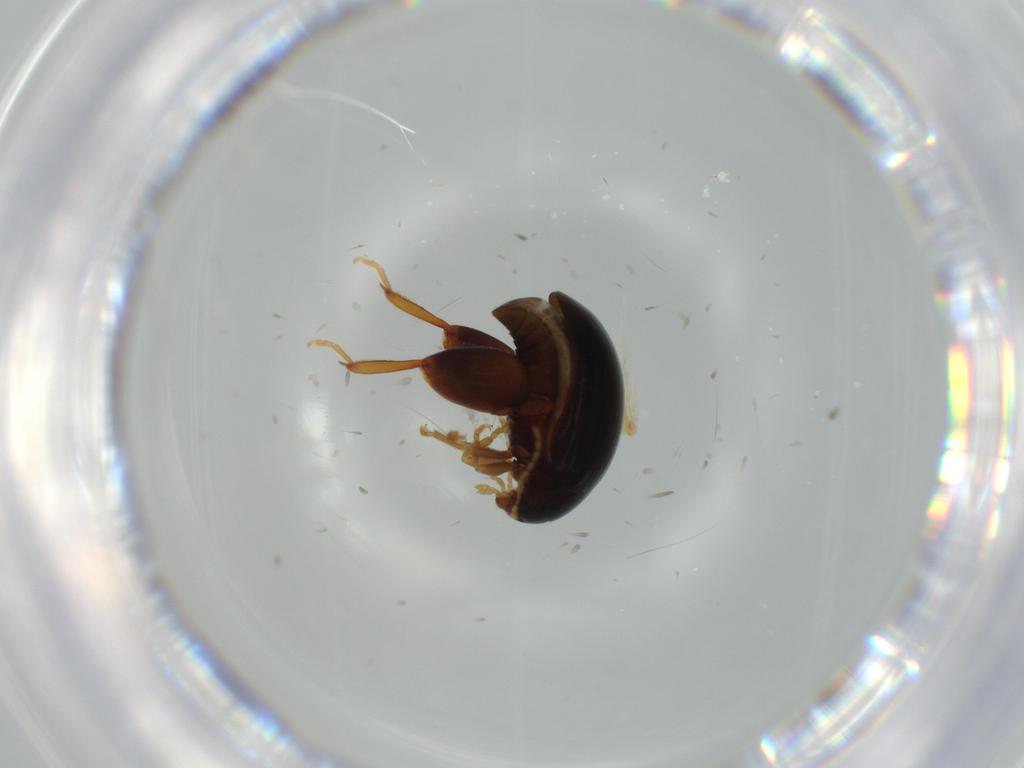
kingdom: Animalia
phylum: Arthropoda
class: Insecta
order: Coleoptera
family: Chrysomelidae
